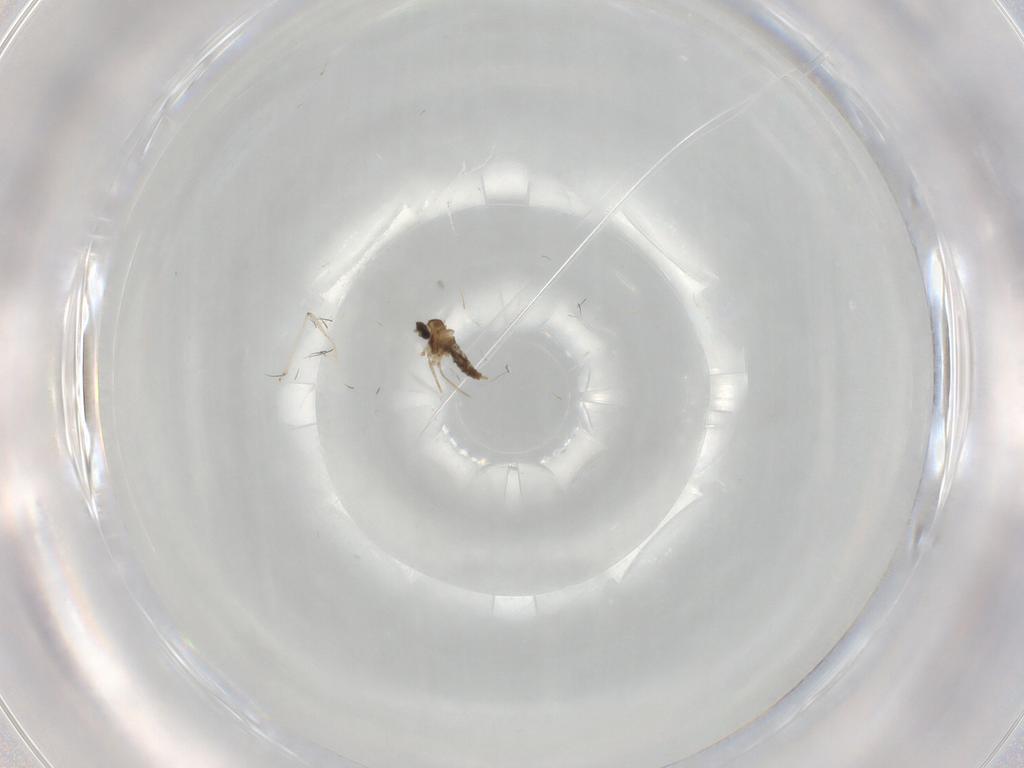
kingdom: Animalia
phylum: Arthropoda
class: Insecta
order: Diptera
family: Cecidomyiidae
